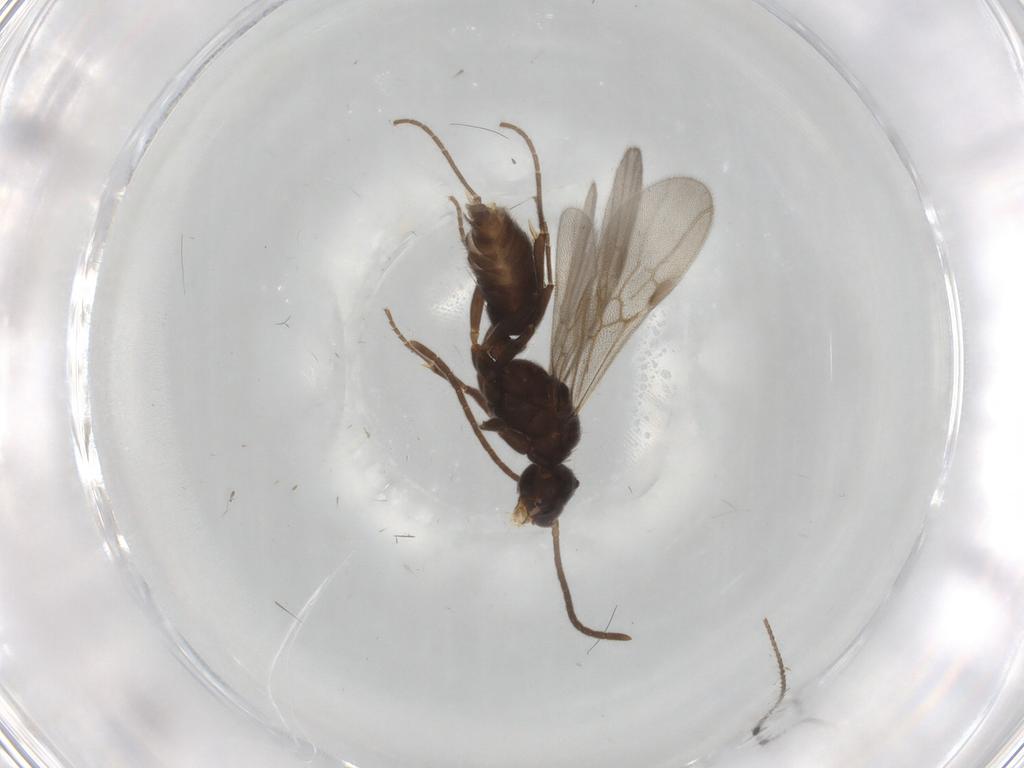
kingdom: Animalia
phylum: Arthropoda
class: Insecta
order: Hymenoptera
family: Formicidae
